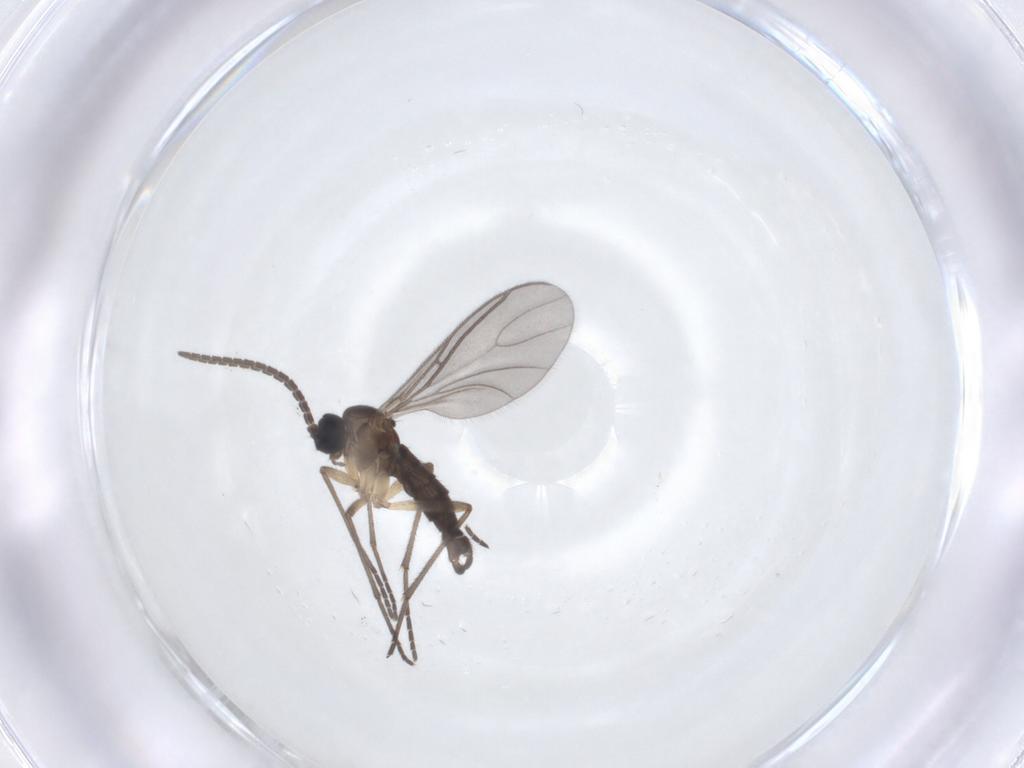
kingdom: Animalia
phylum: Arthropoda
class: Insecta
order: Diptera
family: Sciaridae
